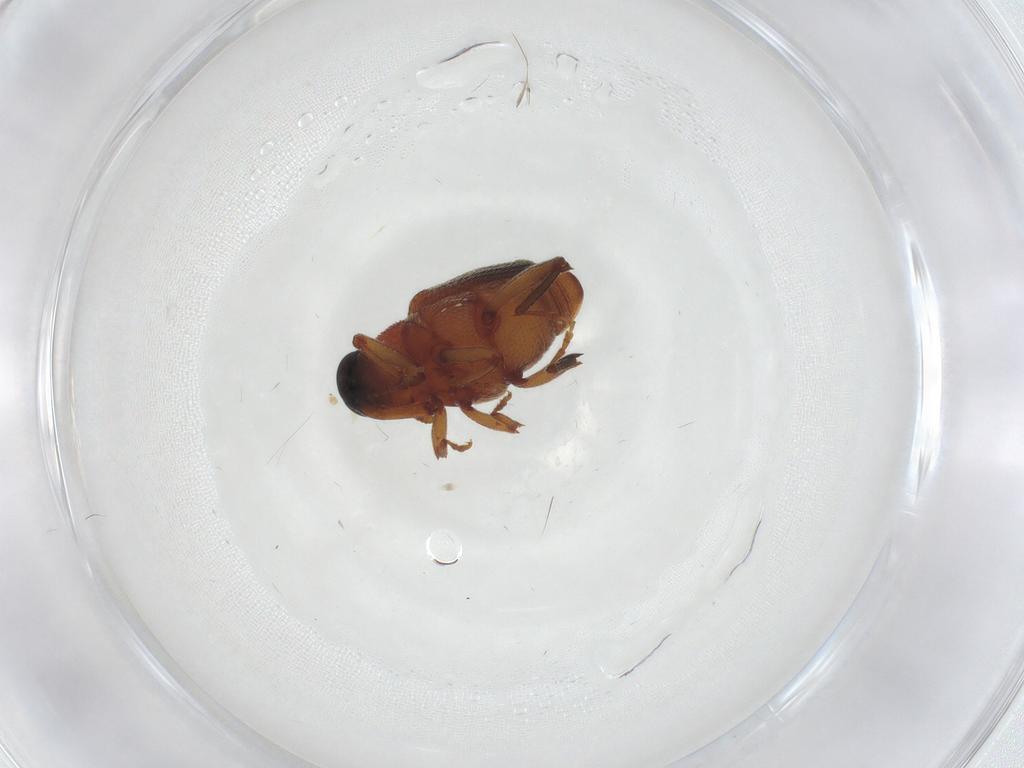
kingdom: Animalia
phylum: Arthropoda
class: Insecta
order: Coleoptera
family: Curculionidae
